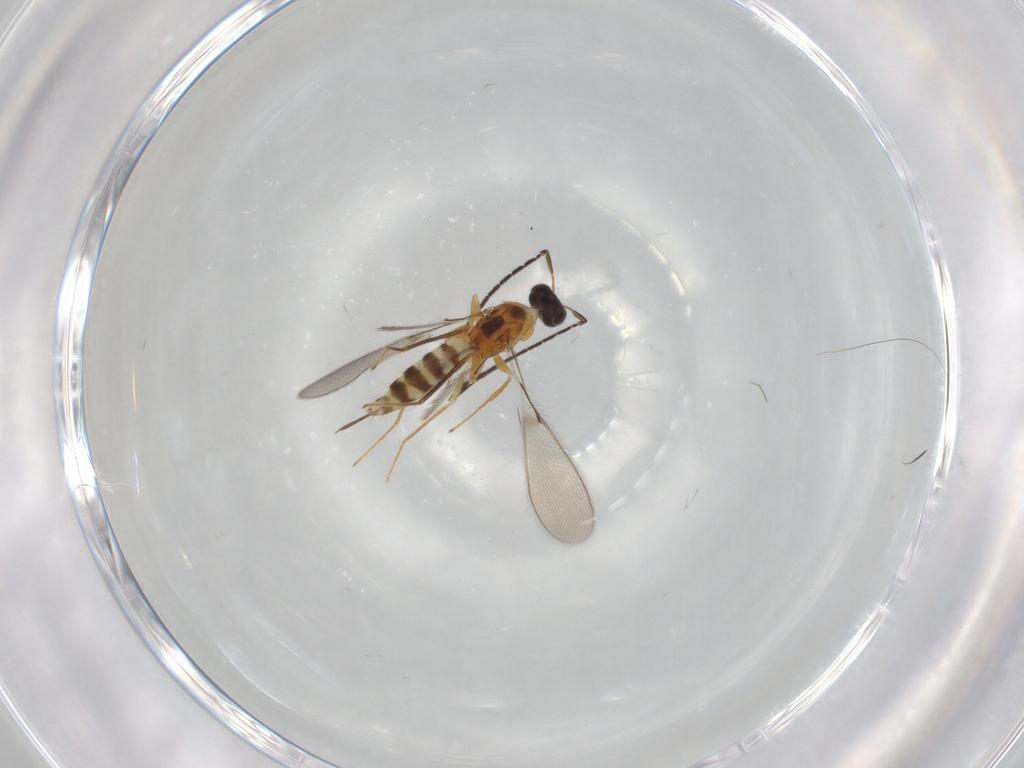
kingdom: Animalia
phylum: Arthropoda
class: Insecta
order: Hymenoptera
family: Mymaridae
